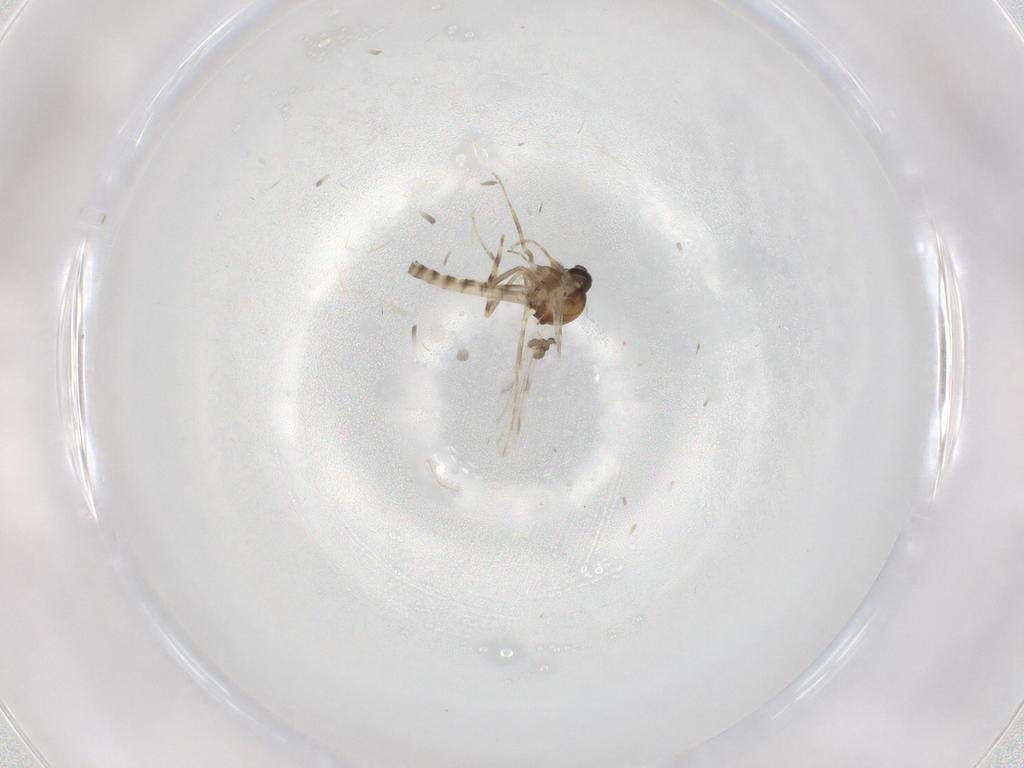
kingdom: Animalia
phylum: Arthropoda
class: Insecta
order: Diptera
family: Ceratopogonidae
